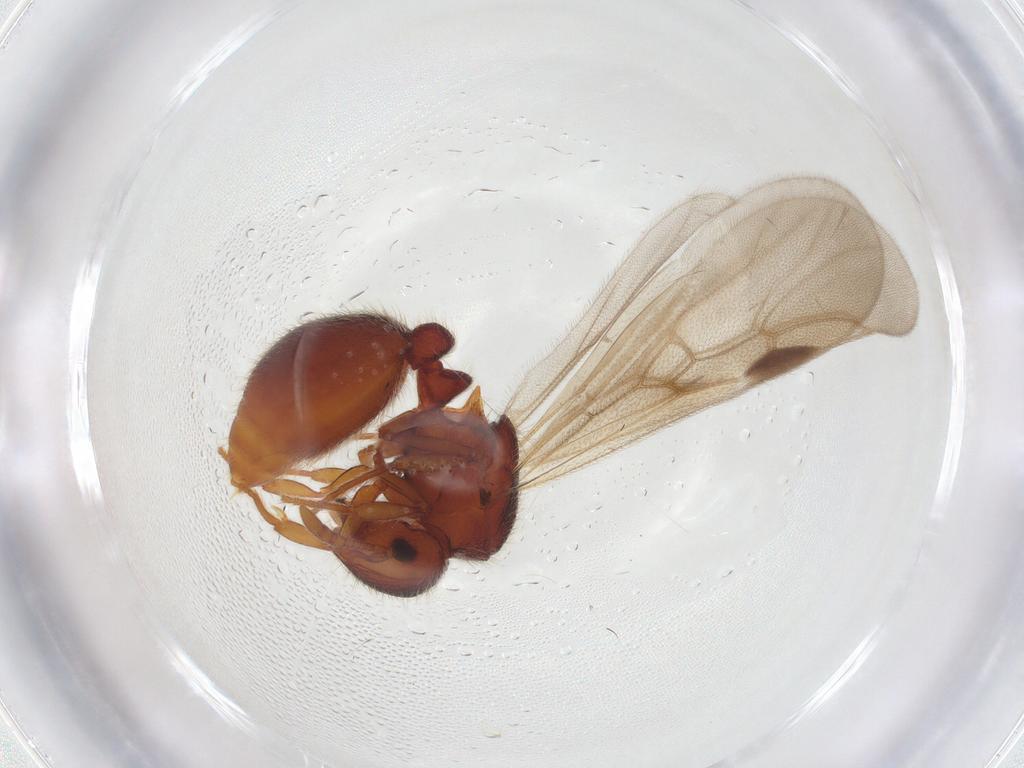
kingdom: Animalia
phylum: Arthropoda
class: Insecta
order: Hymenoptera
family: Formicidae
